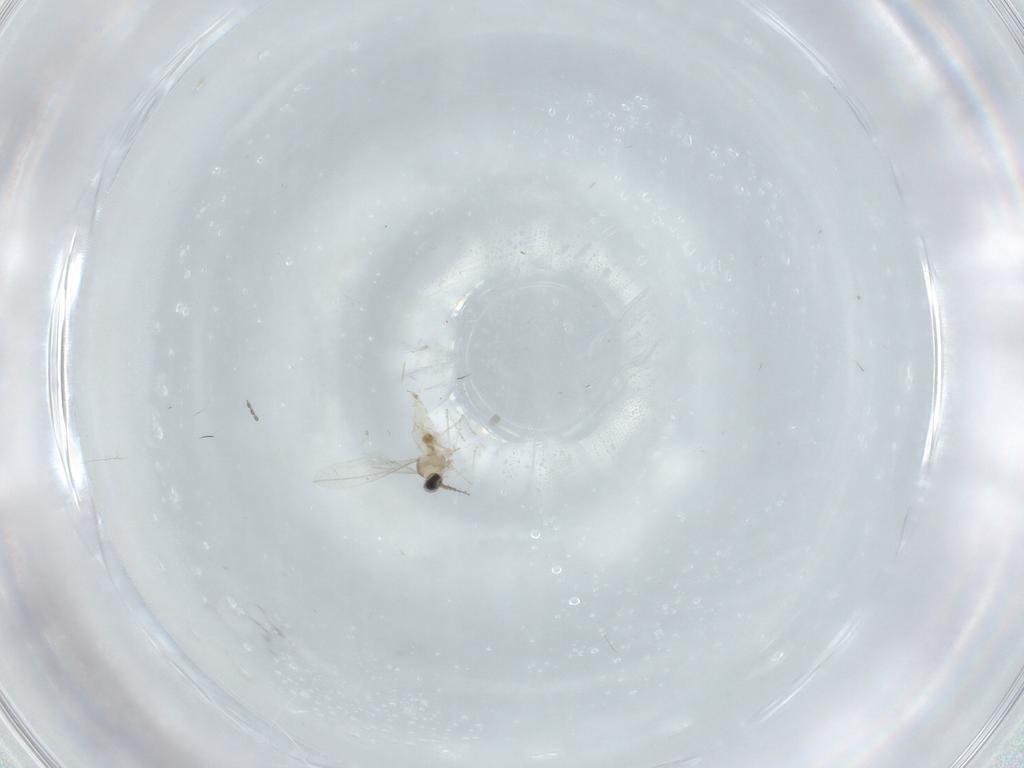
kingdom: Animalia
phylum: Arthropoda
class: Insecta
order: Diptera
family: Cecidomyiidae
